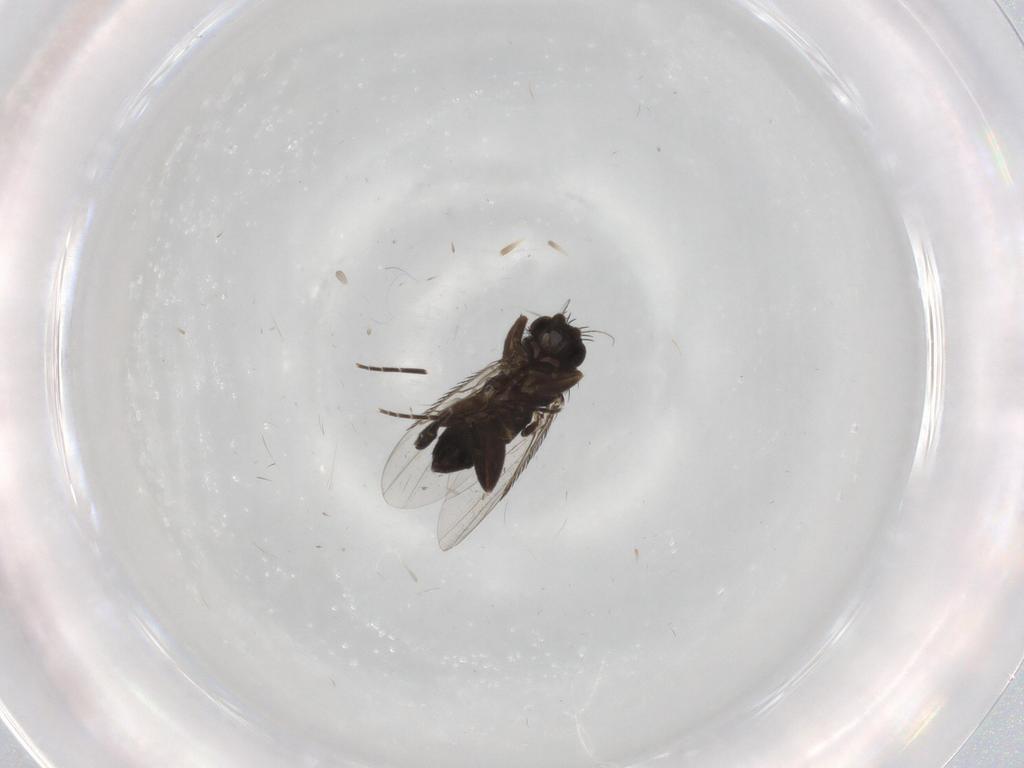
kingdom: Animalia
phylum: Arthropoda
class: Insecta
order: Diptera
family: Phoridae
